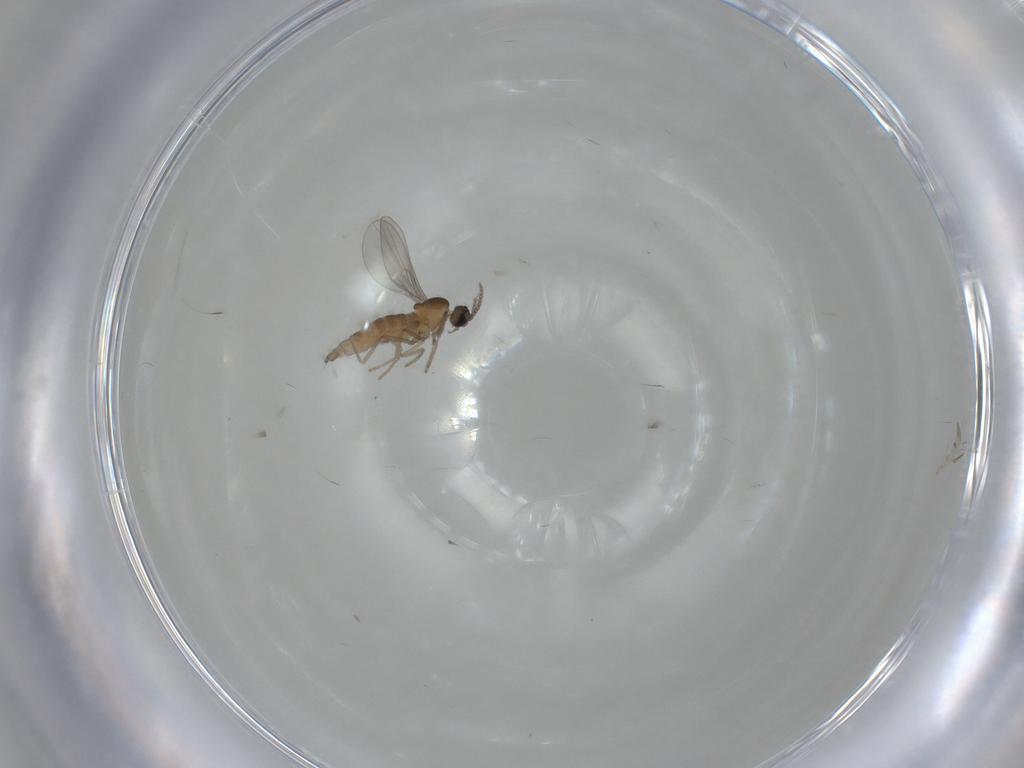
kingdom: Animalia
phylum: Arthropoda
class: Insecta
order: Diptera
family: Cecidomyiidae
